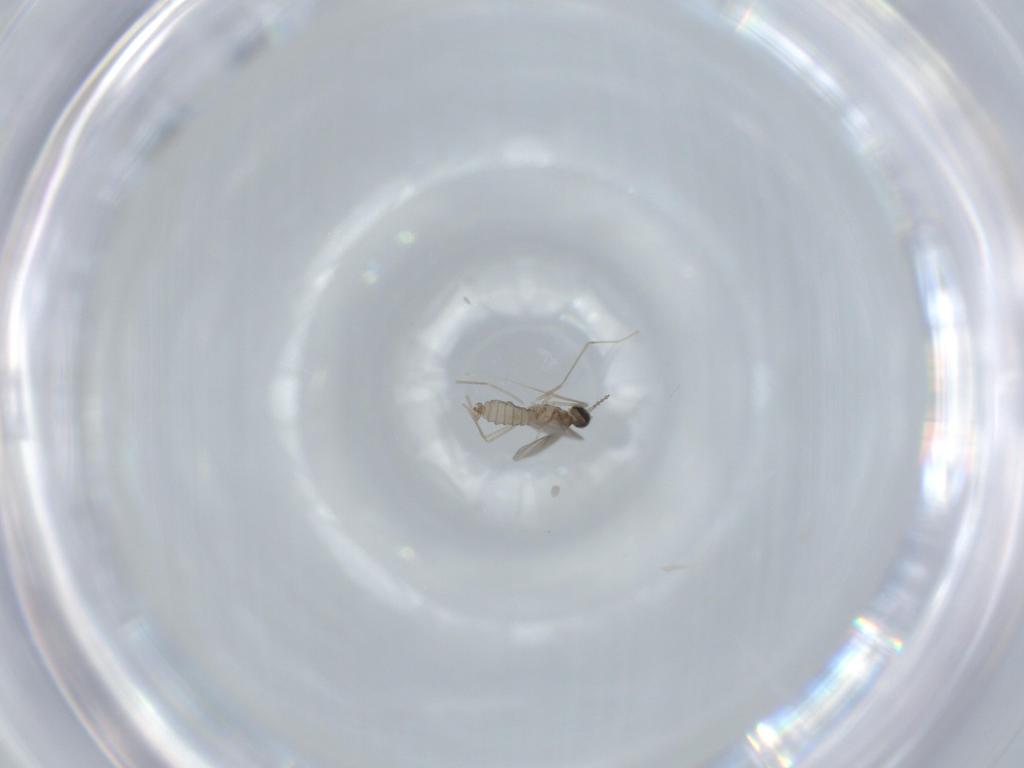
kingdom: Animalia
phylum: Arthropoda
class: Insecta
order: Diptera
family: Cecidomyiidae
